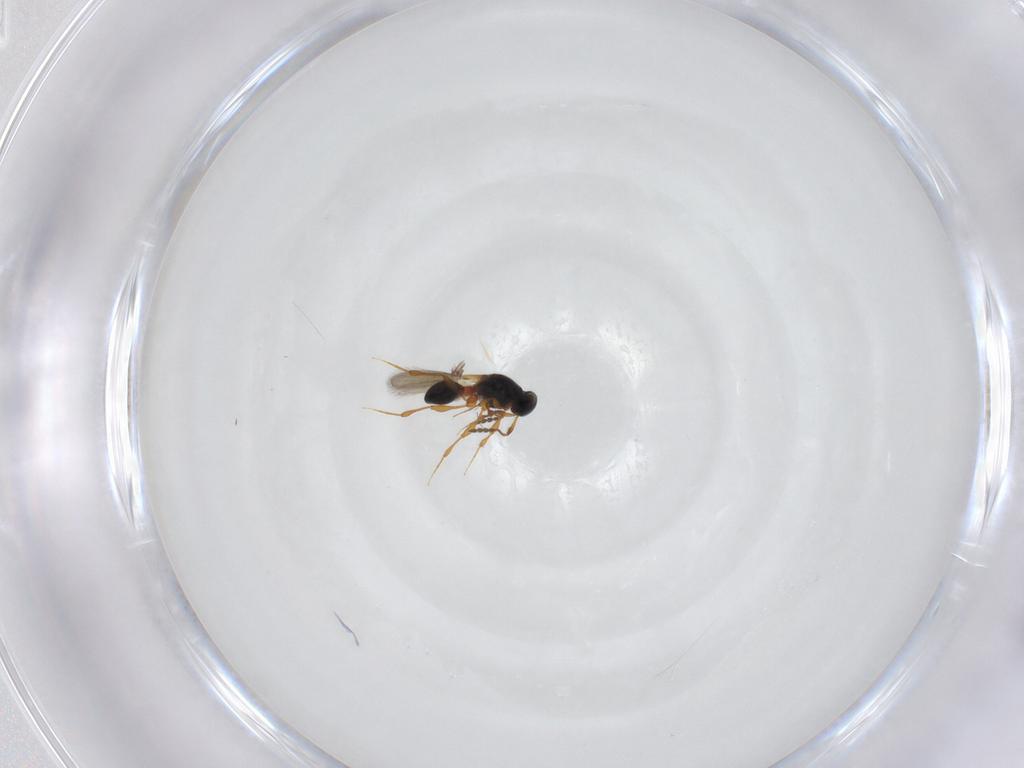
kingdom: Animalia
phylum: Arthropoda
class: Insecta
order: Hymenoptera
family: Platygastridae
